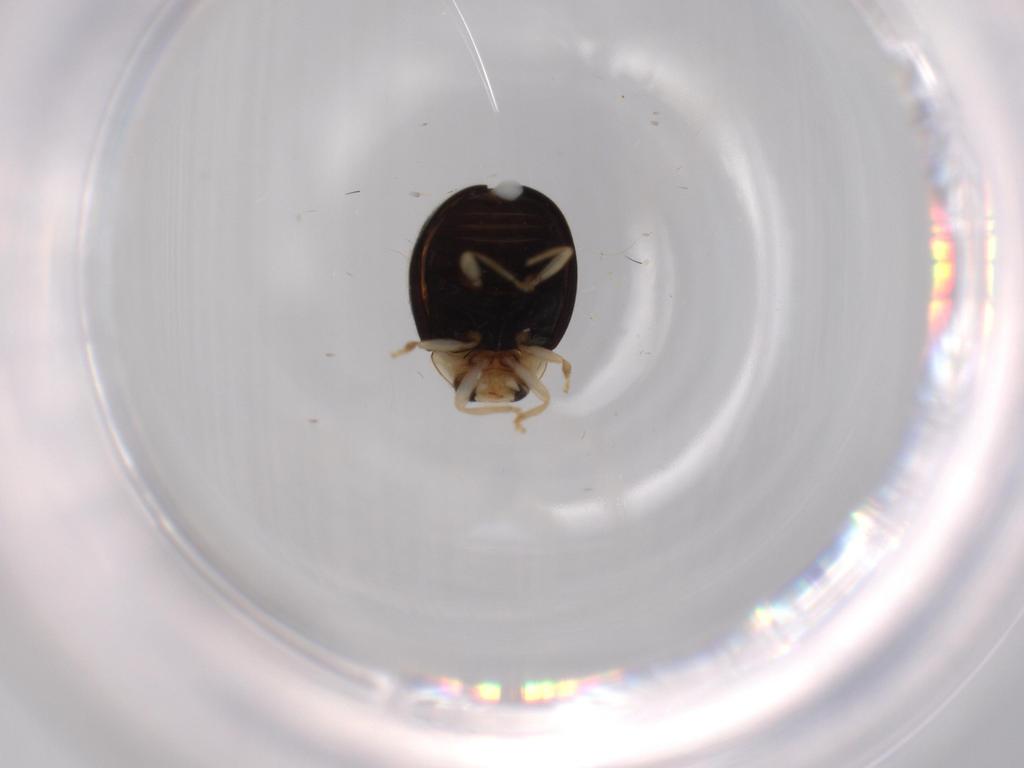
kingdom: Animalia
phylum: Arthropoda
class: Insecta
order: Coleoptera
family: Coccinellidae
